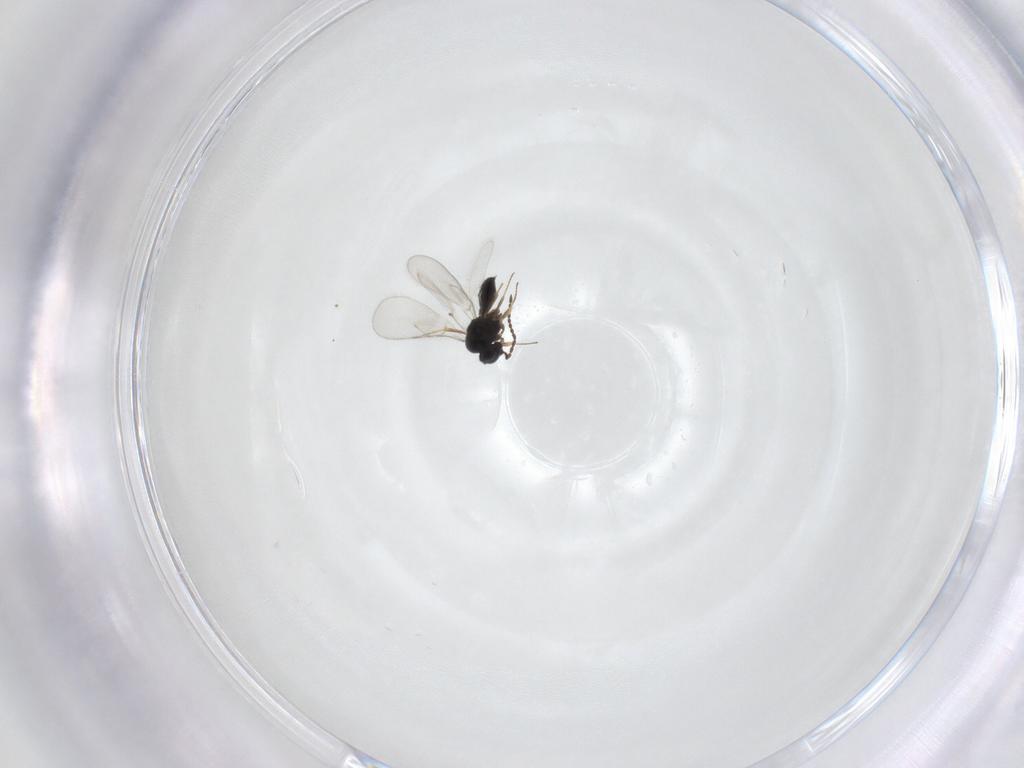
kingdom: Animalia
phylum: Arthropoda
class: Insecta
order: Hymenoptera
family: Scelionidae
